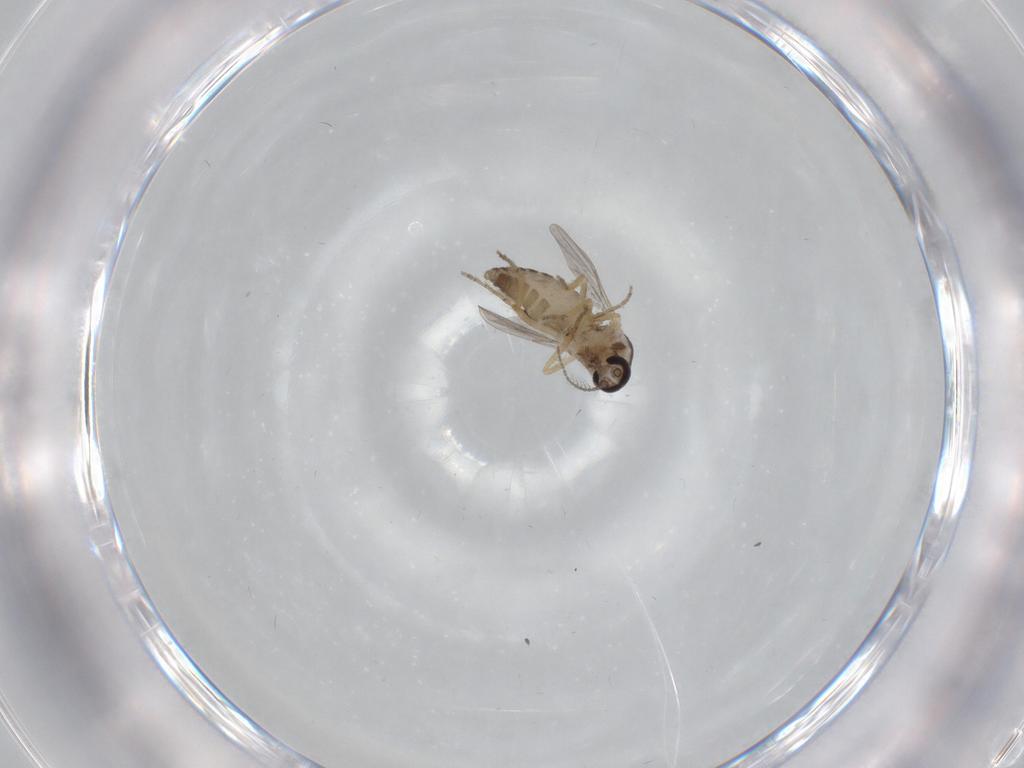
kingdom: Animalia
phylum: Arthropoda
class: Insecta
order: Diptera
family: Ceratopogonidae
